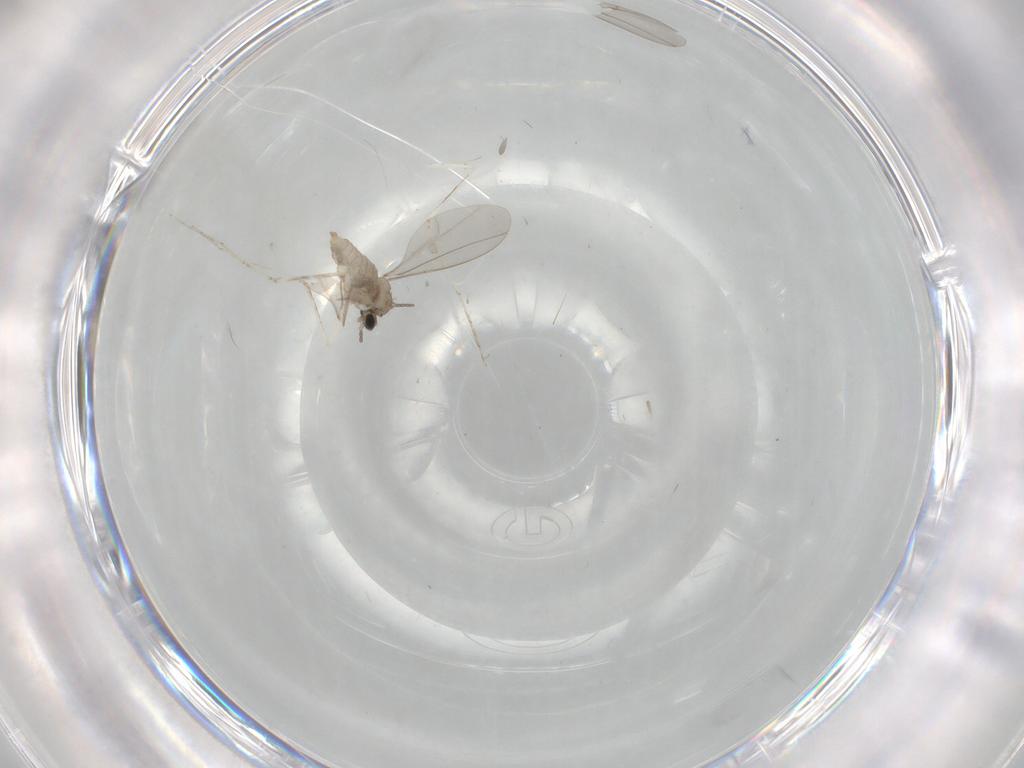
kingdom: Animalia
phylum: Arthropoda
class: Insecta
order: Diptera
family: Cecidomyiidae
